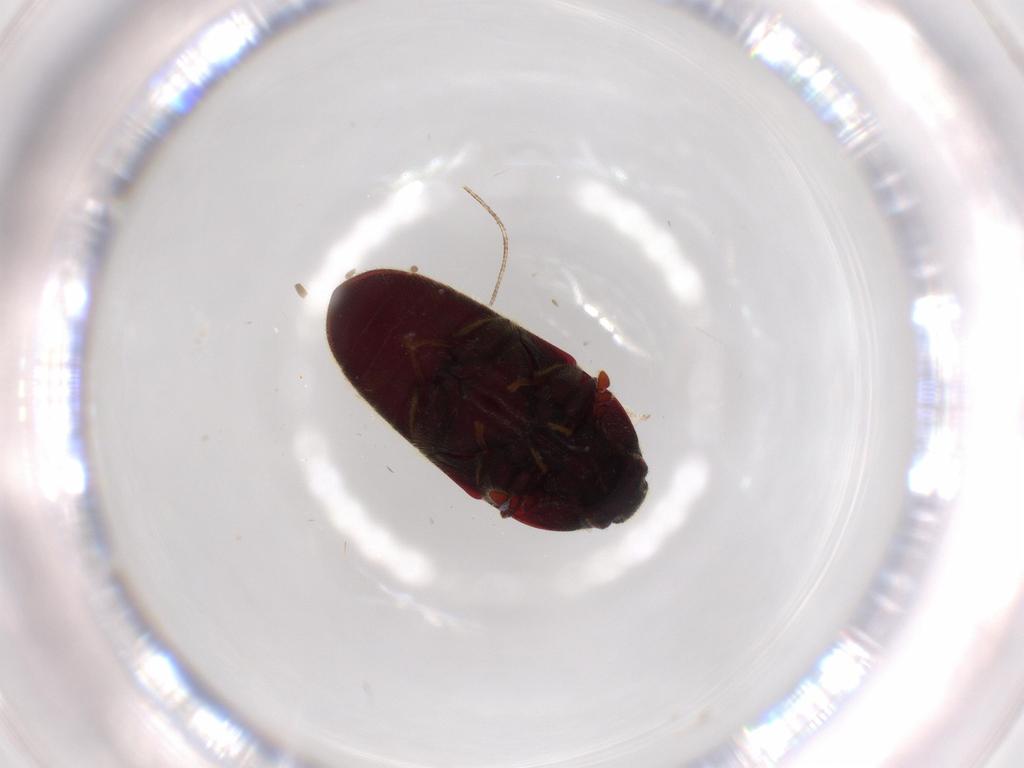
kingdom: Animalia
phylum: Arthropoda
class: Insecta
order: Coleoptera
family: Throscidae
